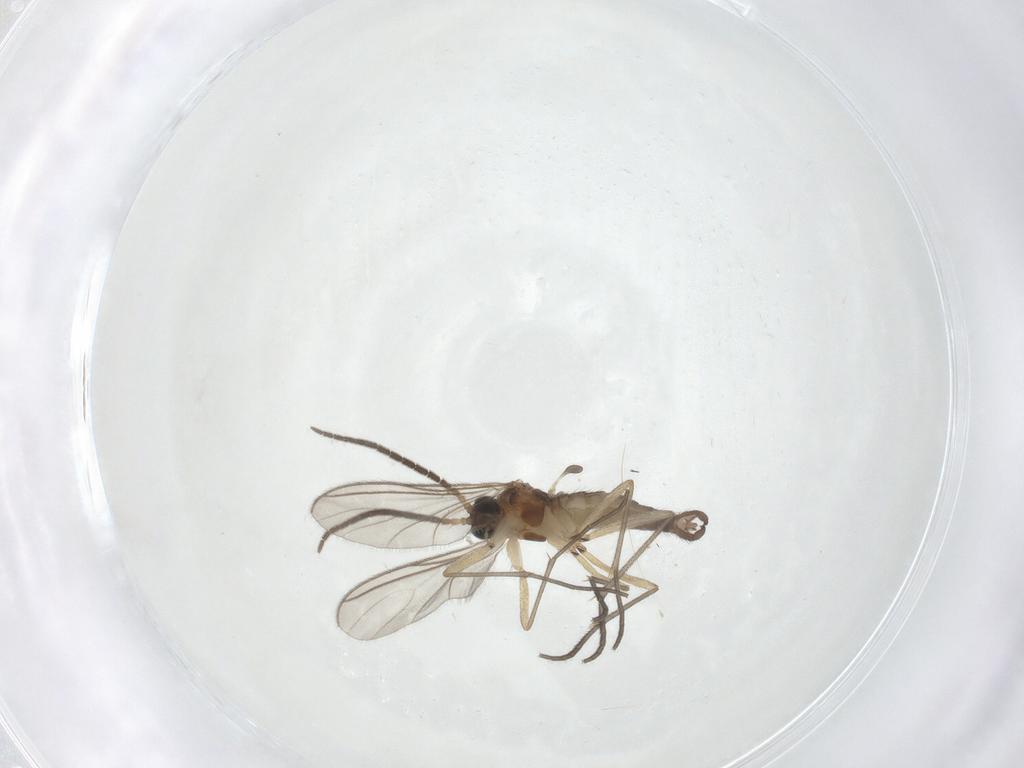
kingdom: Animalia
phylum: Arthropoda
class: Insecta
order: Diptera
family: Sciaridae
